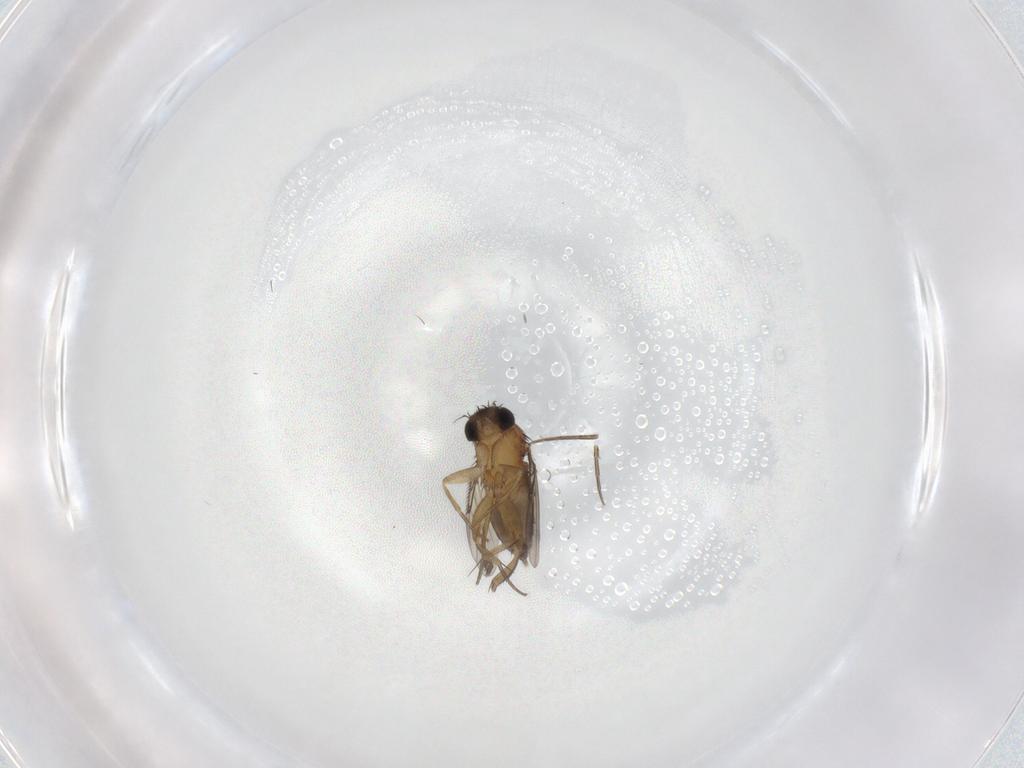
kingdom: Animalia
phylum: Arthropoda
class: Insecta
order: Diptera
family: Phoridae
